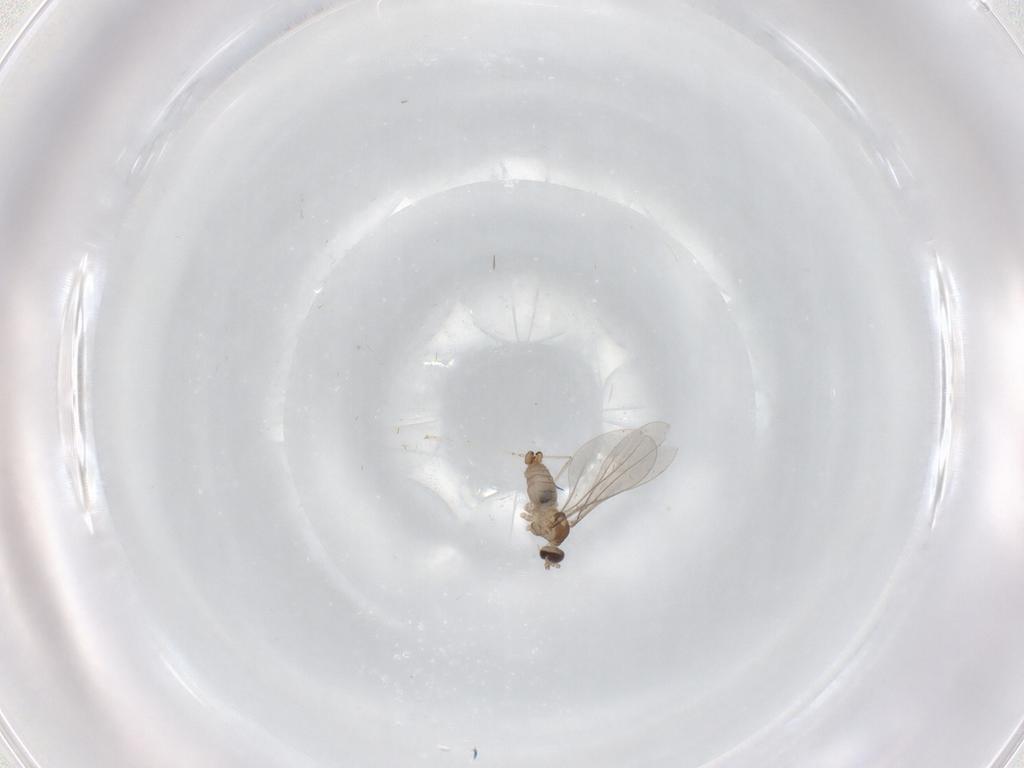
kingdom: Animalia
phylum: Arthropoda
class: Insecta
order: Diptera
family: Cecidomyiidae
